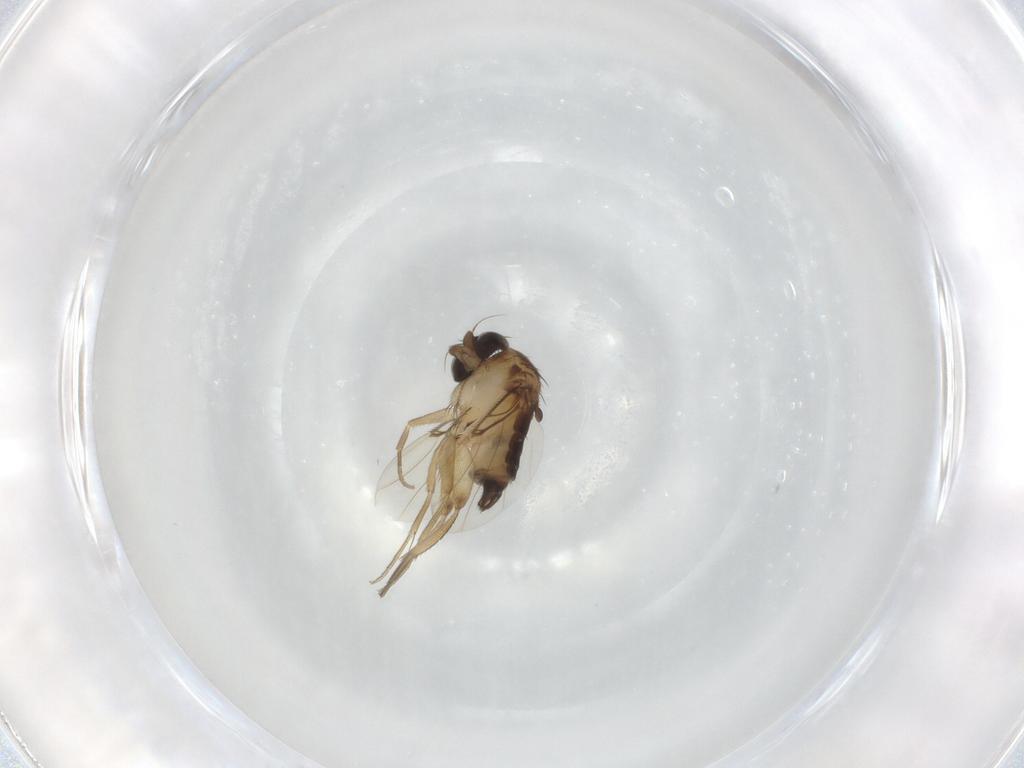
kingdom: Animalia
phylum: Arthropoda
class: Insecta
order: Diptera
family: Phoridae
